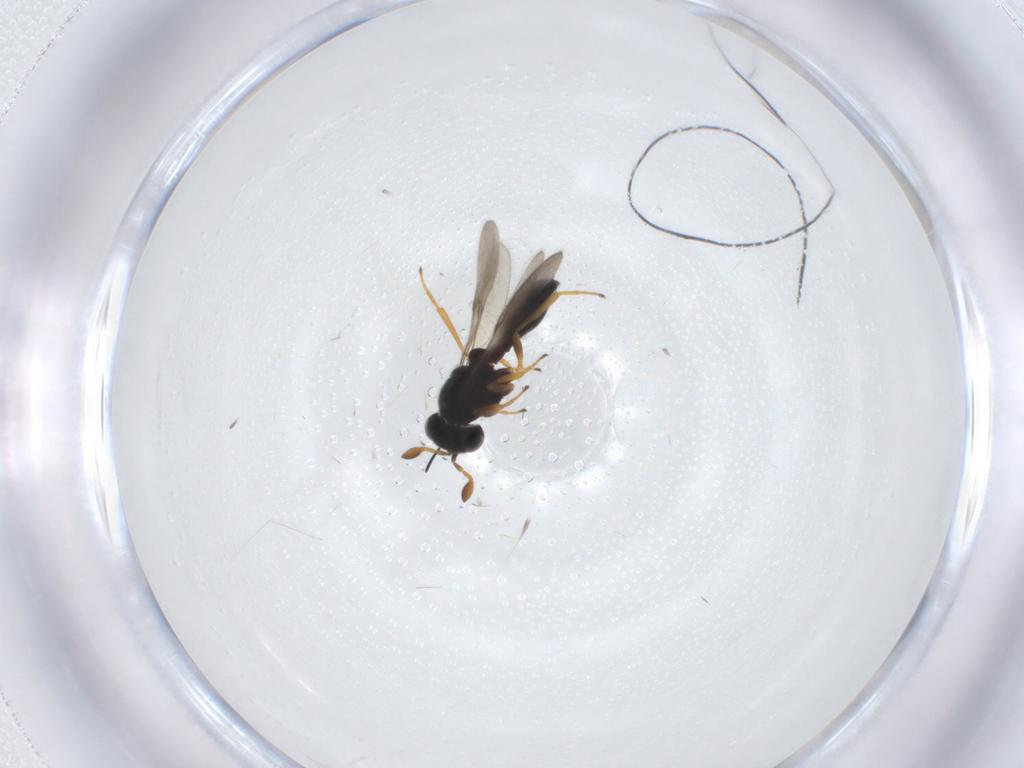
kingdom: Animalia
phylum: Arthropoda
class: Insecta
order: Hymenoptera
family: Scelionidae
